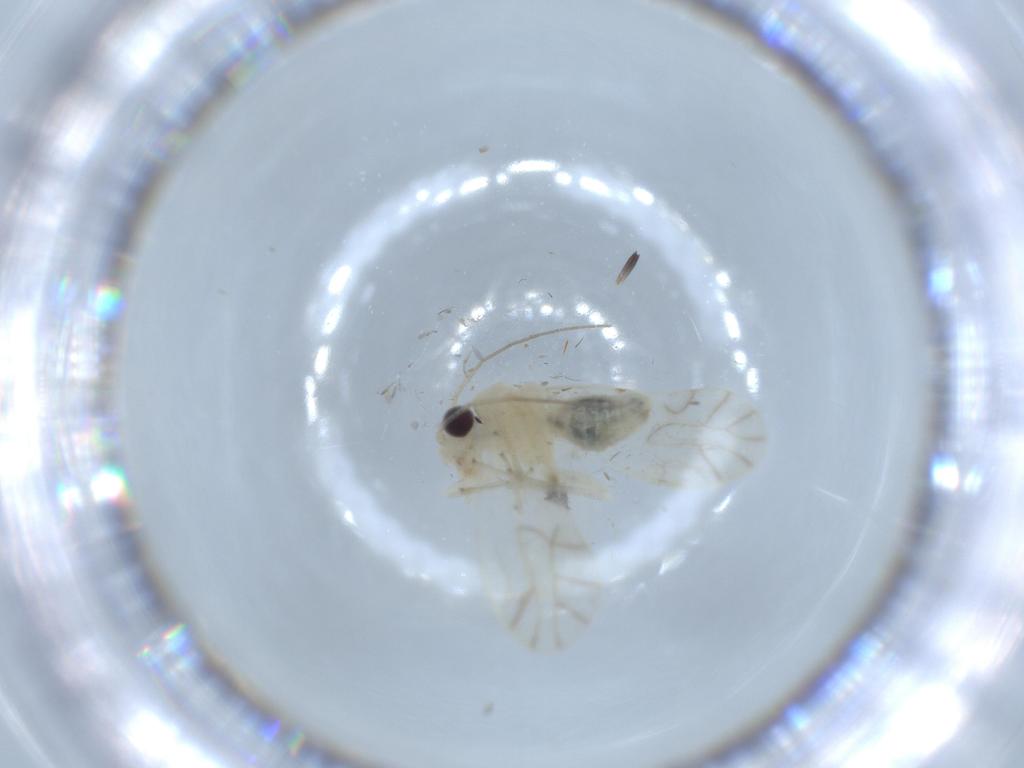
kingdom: Animalia
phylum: Arthropoda
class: Insecta
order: Psocodea
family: Caeciliusidae
